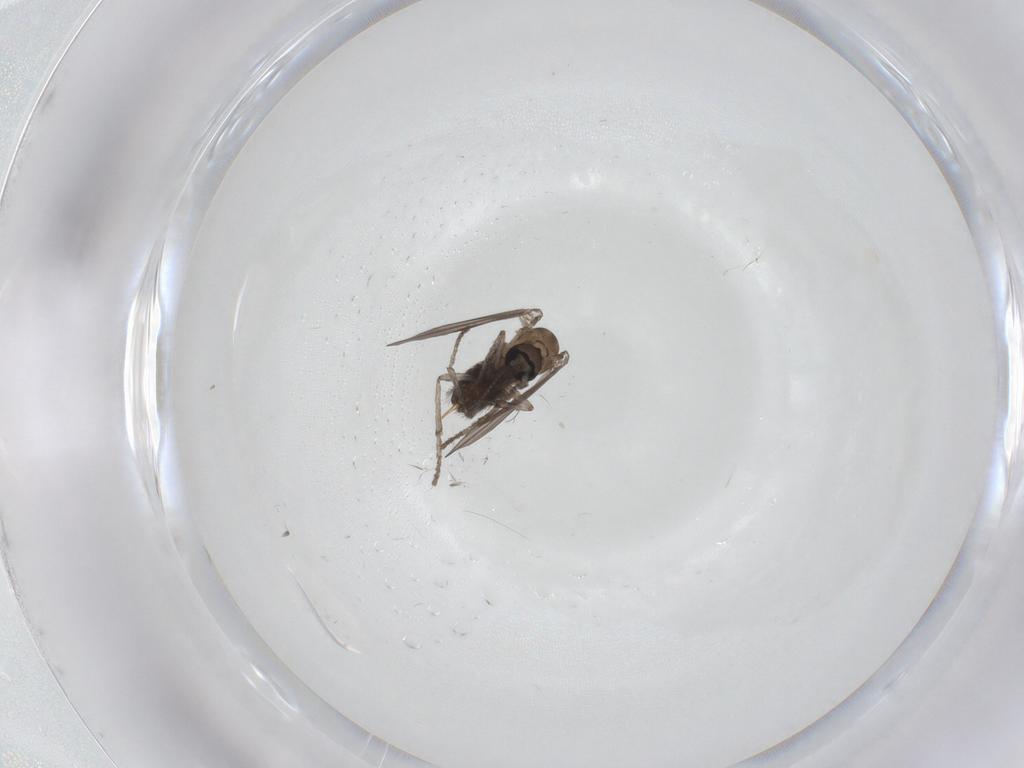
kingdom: Animalia
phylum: Arthropoda
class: Insecta
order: Diptera
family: Psychodidae
